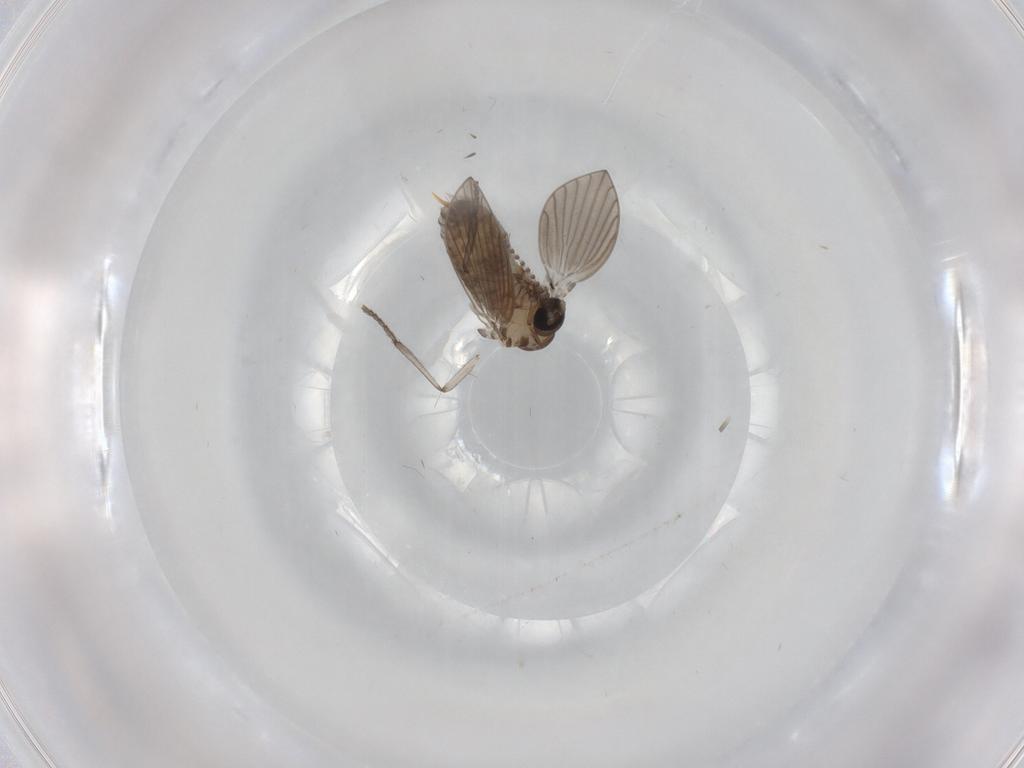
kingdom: Animalia
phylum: Arthropoda
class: Insecta
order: Diptera
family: Psychodidae
